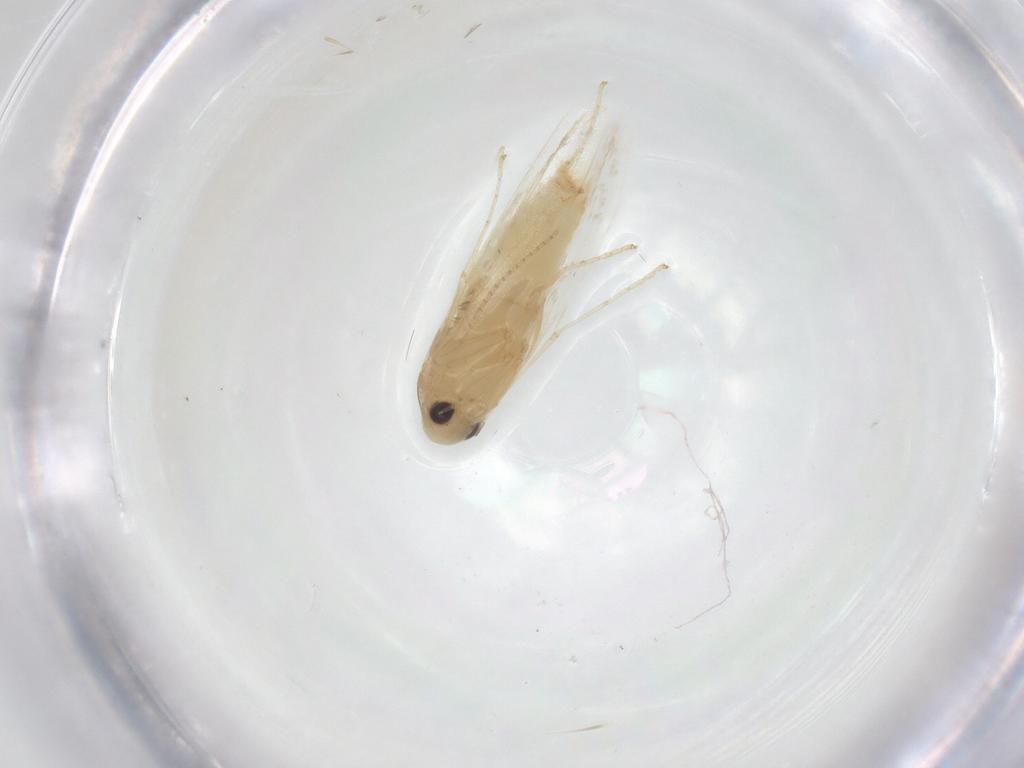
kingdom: Animalia
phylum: Arthropoda
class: Insecta
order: Lepidoptera
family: Gracillariidae
